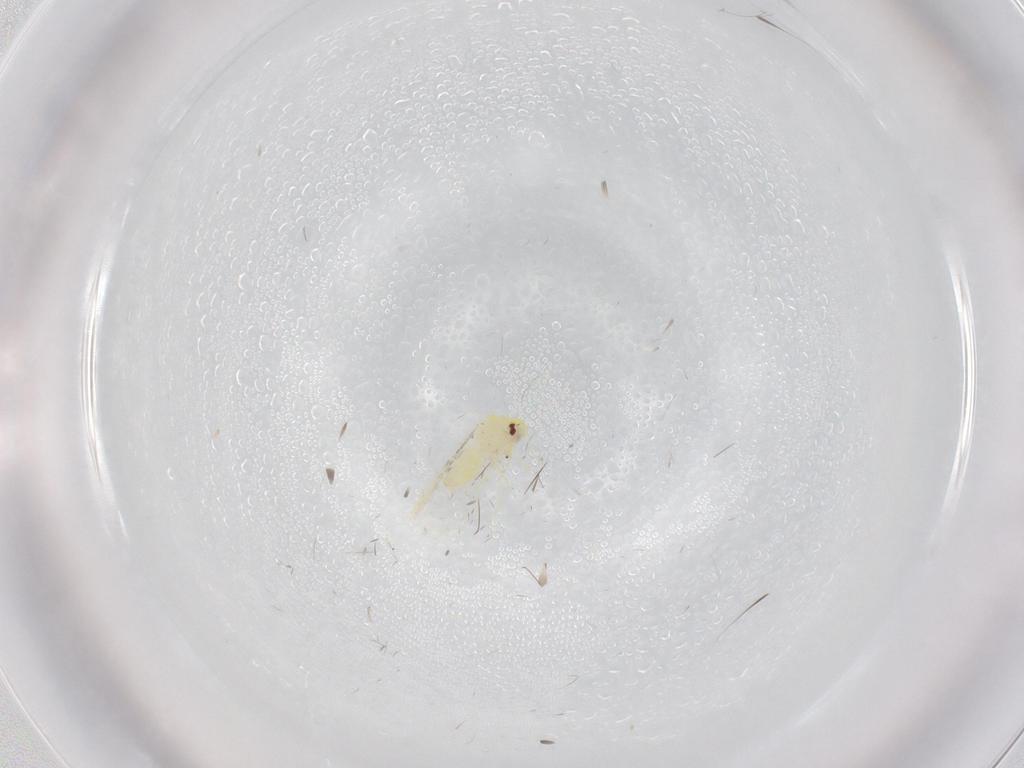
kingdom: Animalia
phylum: Arthropoda
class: Insecta
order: Hemiptera
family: Aleyrodidae
